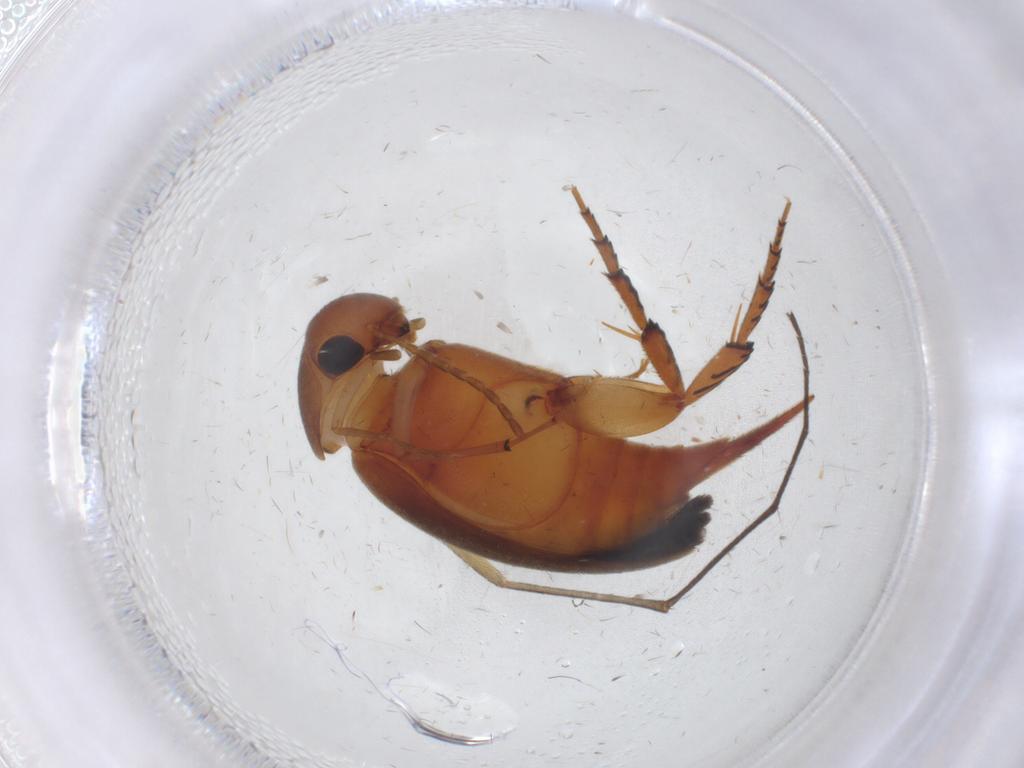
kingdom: Animalia
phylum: Arthropoda
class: Insecta
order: Coleoptera
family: Mordellidae
